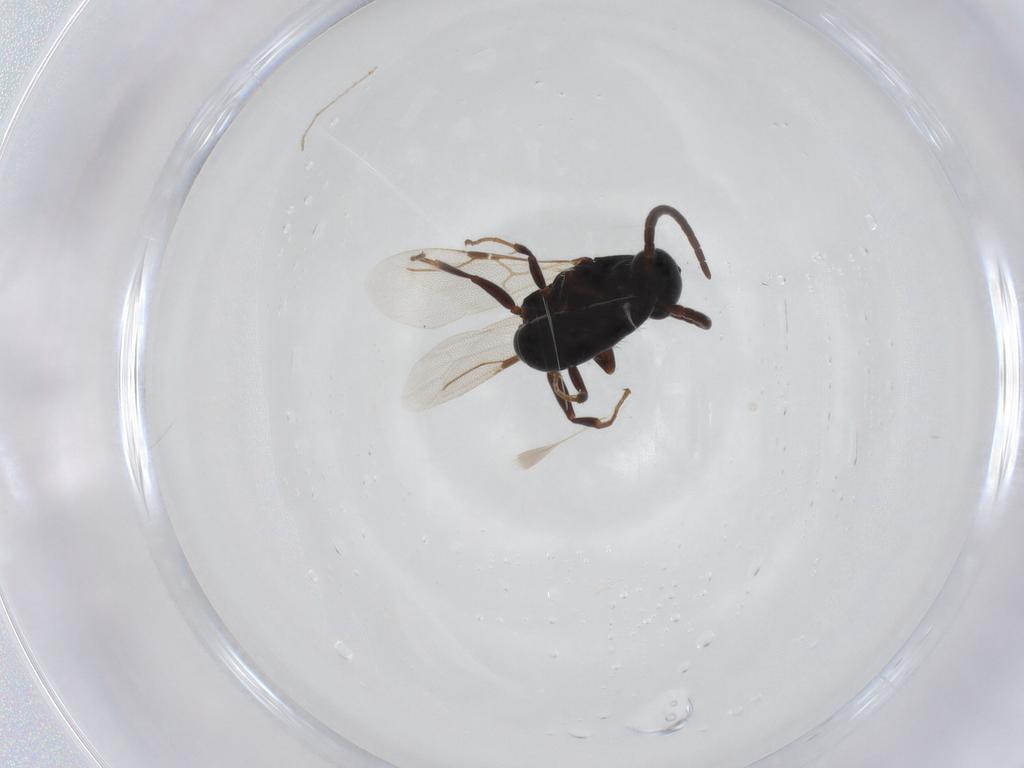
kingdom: Animalia
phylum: Arthropoda
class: Insecta
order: Hymenoptera
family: Bethylidae
